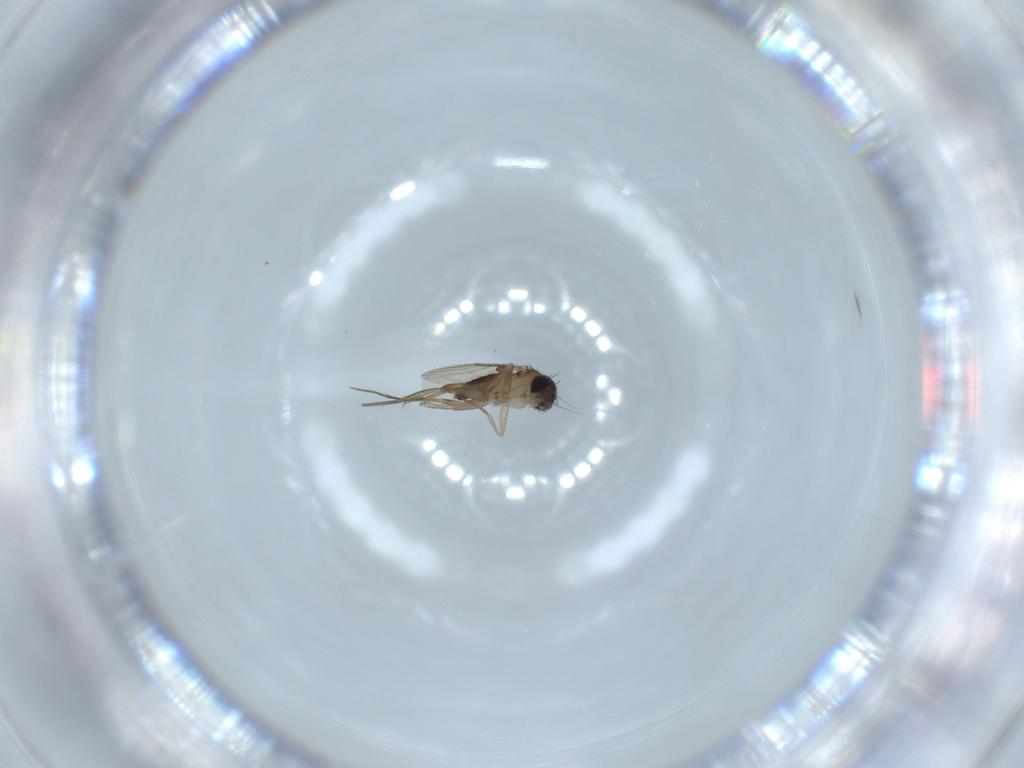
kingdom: Animalia
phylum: Arthropoda
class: Insecta
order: Diptera
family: Phoridae
